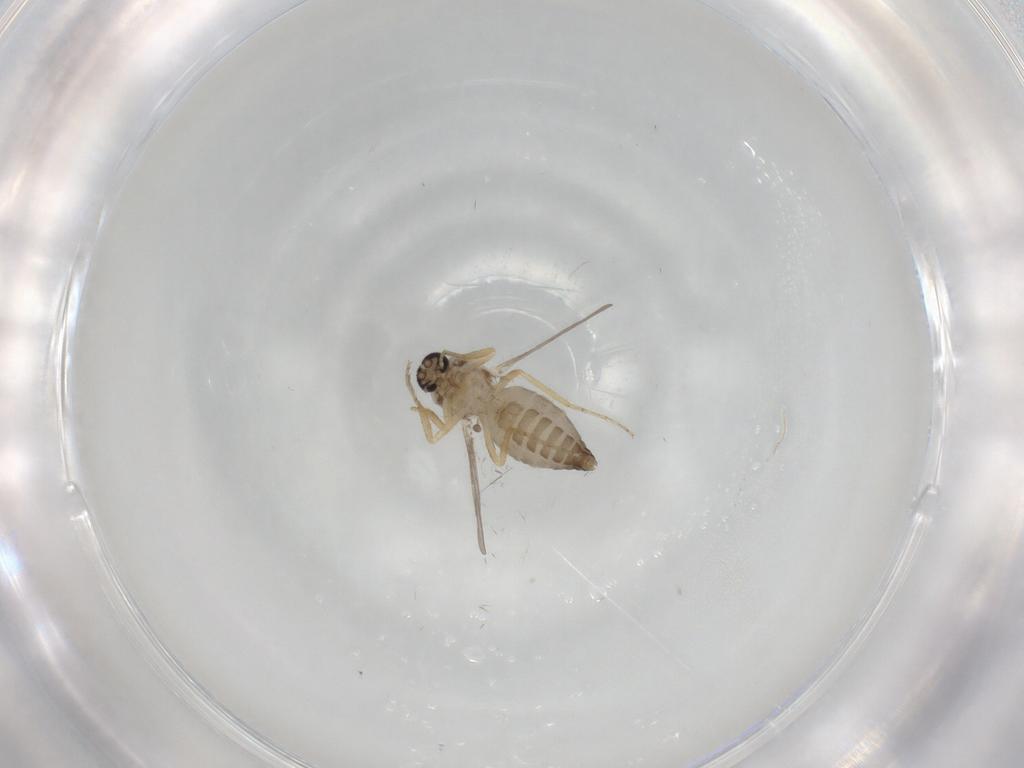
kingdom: Animalia
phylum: Arthropoda
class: Insecta
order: Diptera
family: Ceratopogonidae
